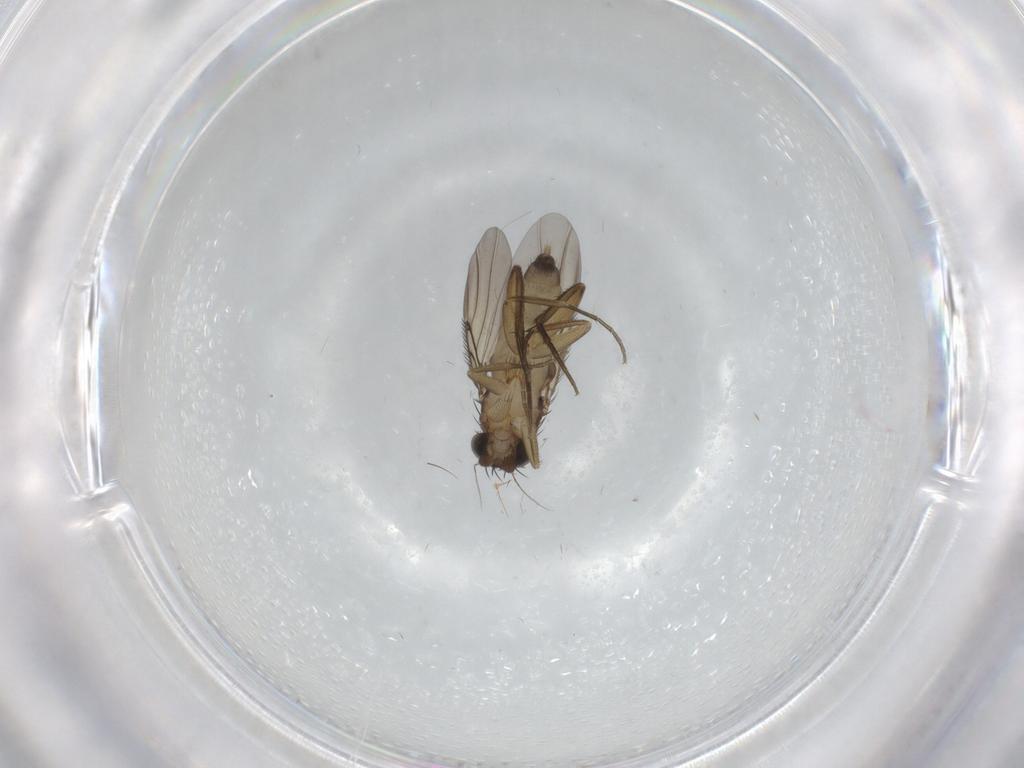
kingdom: Animalia
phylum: Arthropoda
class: Insecta
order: Diptera
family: Phoridae
